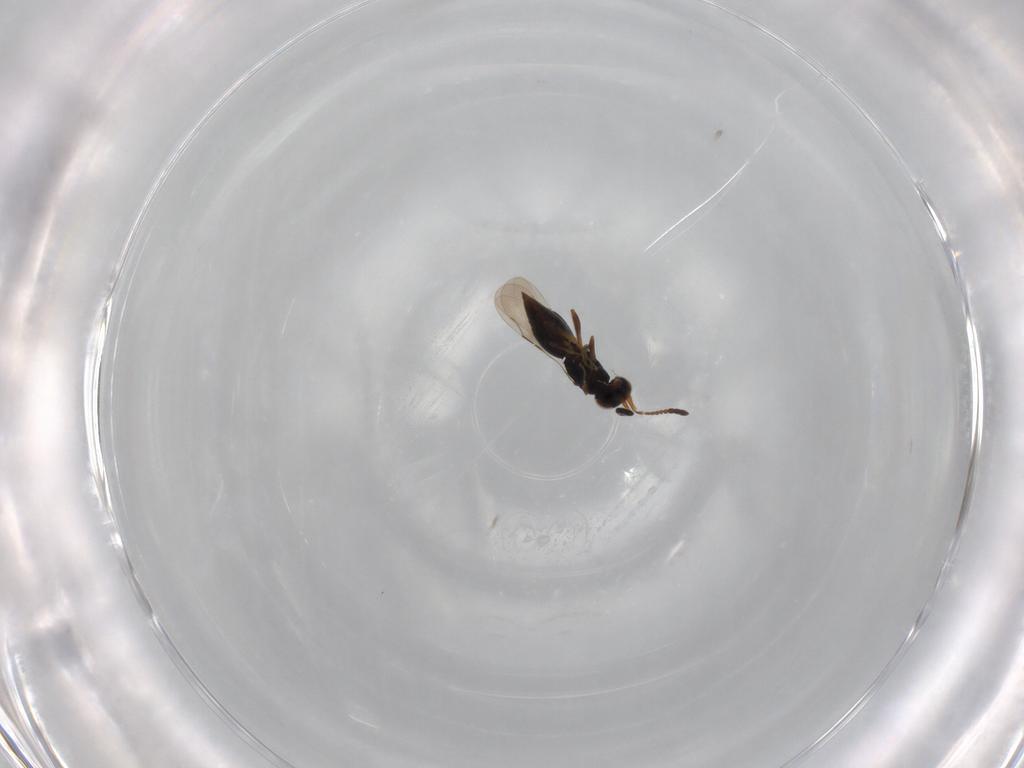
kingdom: Animalia
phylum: Arthropoda
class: Insecta
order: Hymenoptera
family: Ceraphronidae
